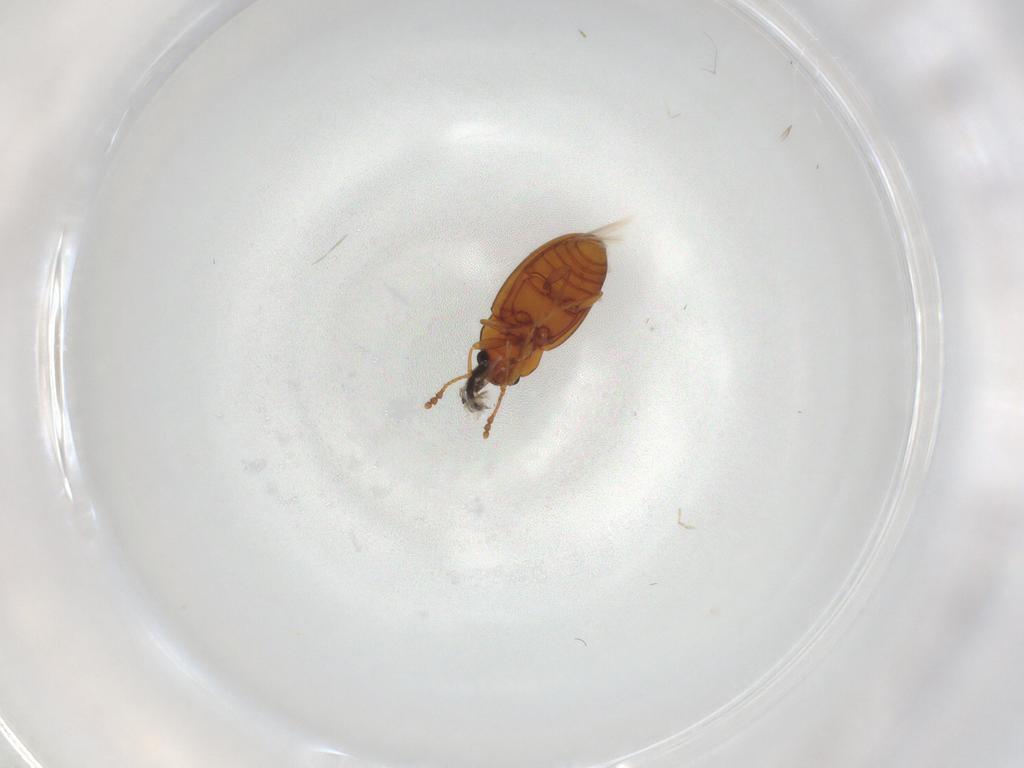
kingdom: Animalia
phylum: Arthropoda
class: Insecta
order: Coleoptera
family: Erotylidae
